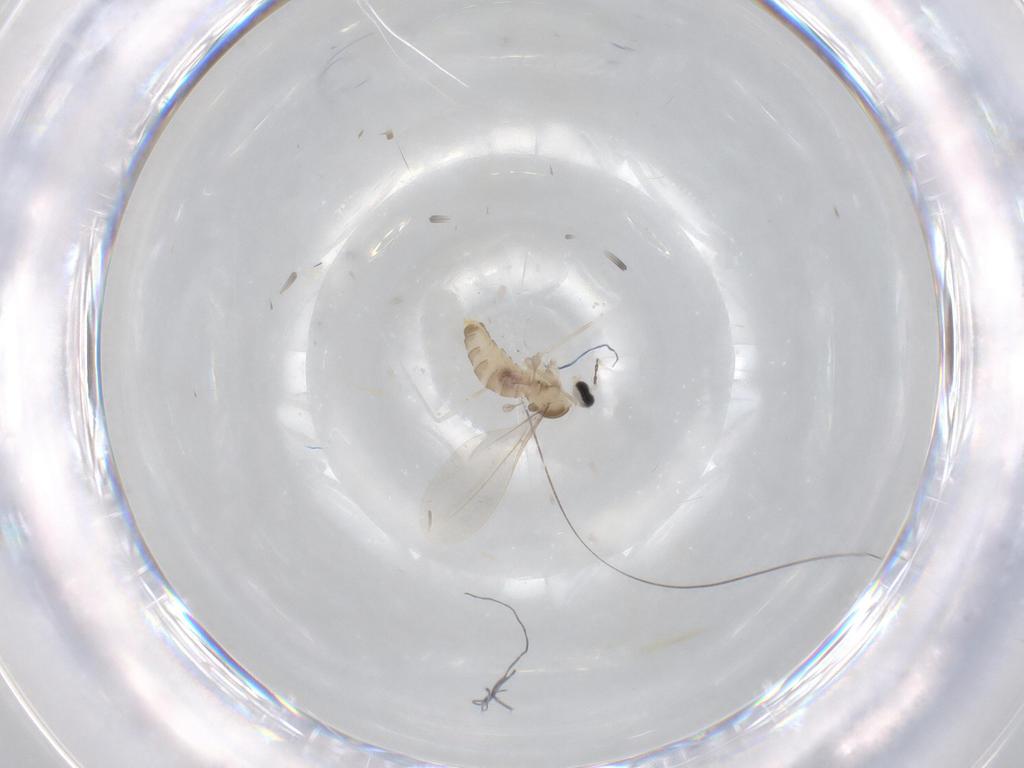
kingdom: Animalia
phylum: Arthropoda
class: Insecta
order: Diptera
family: Cecidomyiidae
